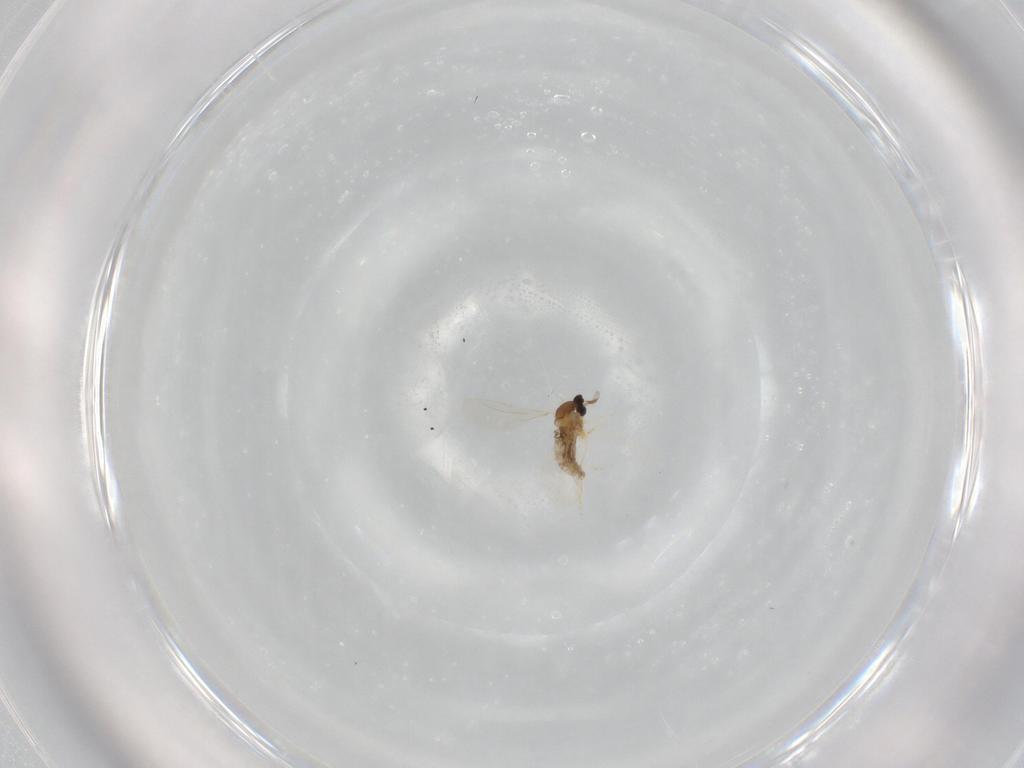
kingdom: Animalia
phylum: Arthropoda
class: Insecta
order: Diptera
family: Cecidomyiidae
